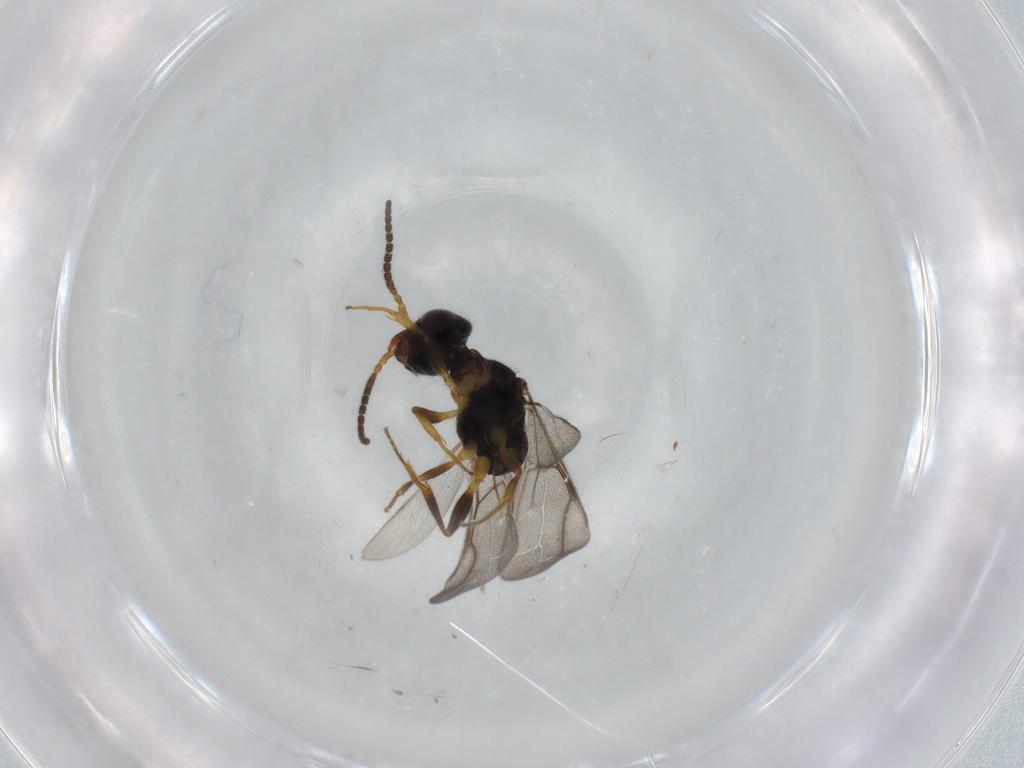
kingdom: Animalia
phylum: Arthropoda
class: Insecta
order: Hymenoptera
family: Bethylidae
